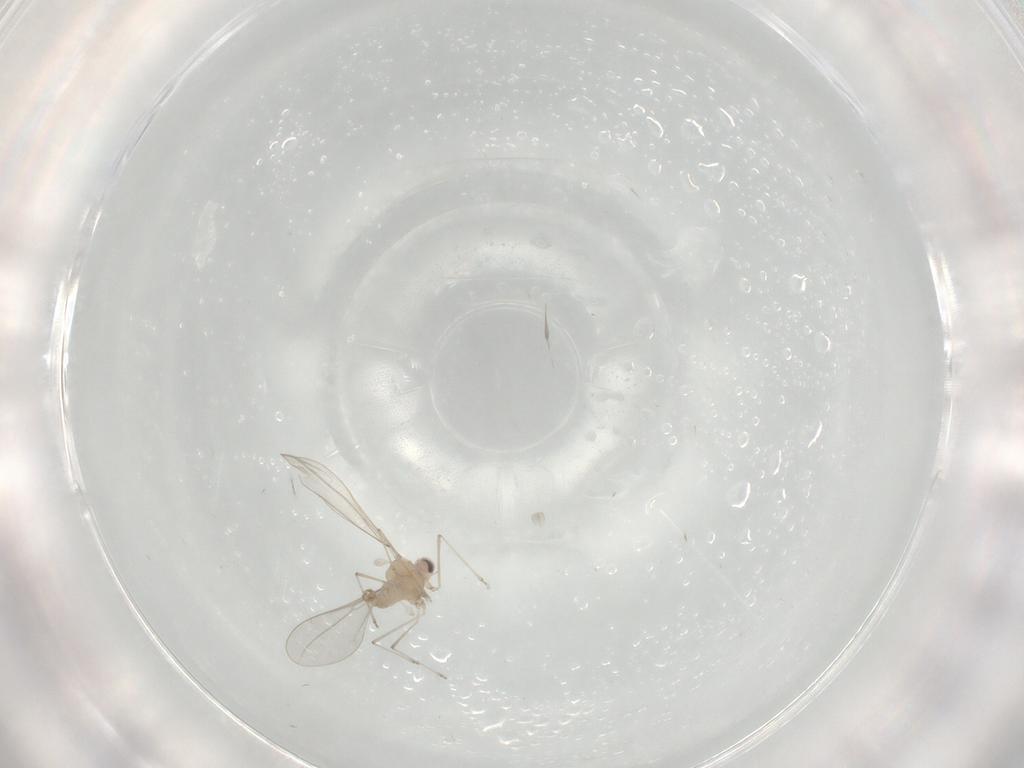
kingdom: Animalia
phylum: Arthropoda
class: Insecta
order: Diptera
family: Cecidomyiidae
